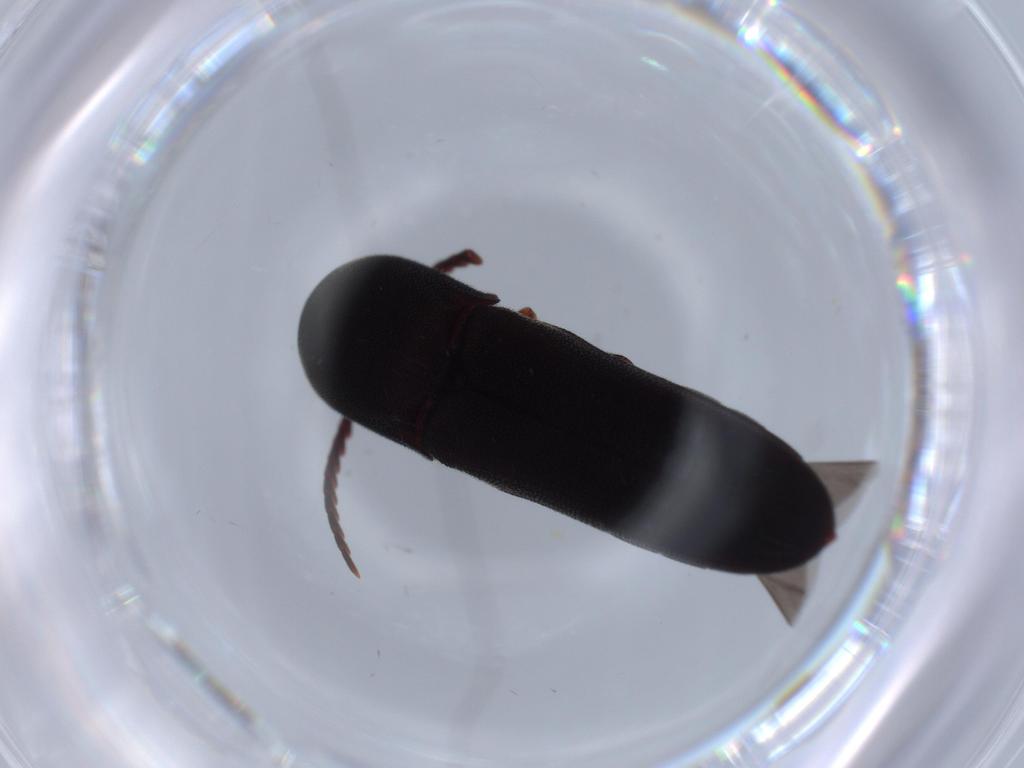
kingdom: Animalia
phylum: Arthropoda
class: Insecta
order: Coleoptera
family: Eucnemidae
